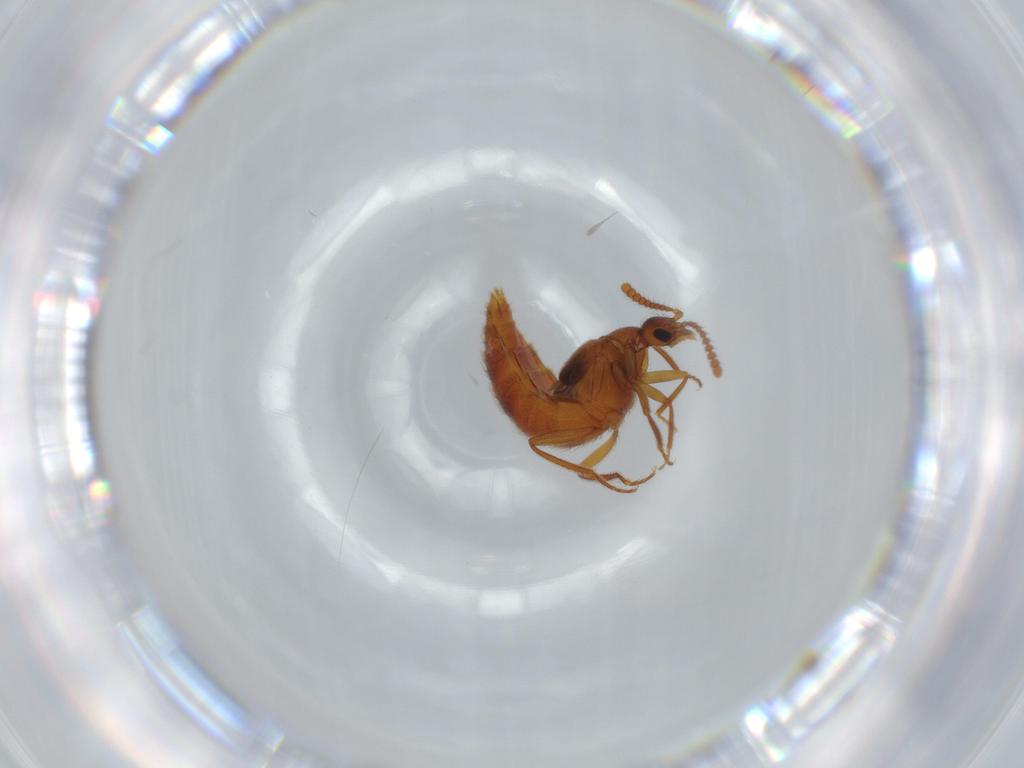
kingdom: Animalia
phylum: Arthropoda
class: Insecta
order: Coleoptera
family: Staphylinidae
